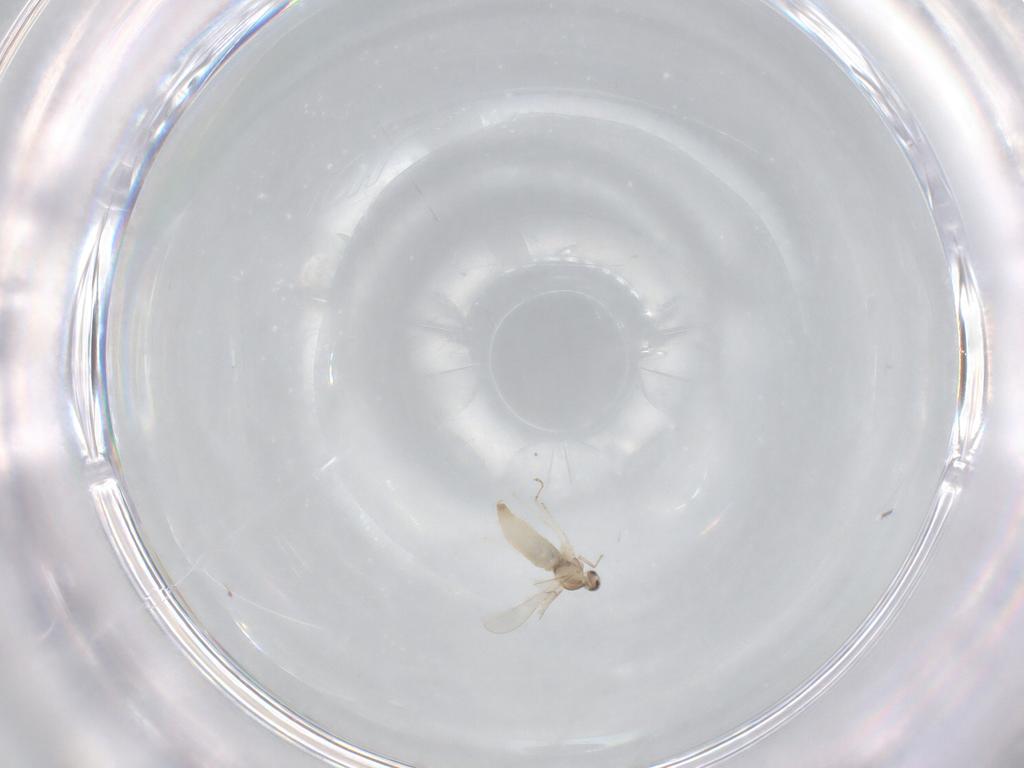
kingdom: Animalia
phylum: Arthropoda
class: Insecta
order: Diptera
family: Psychodidae
